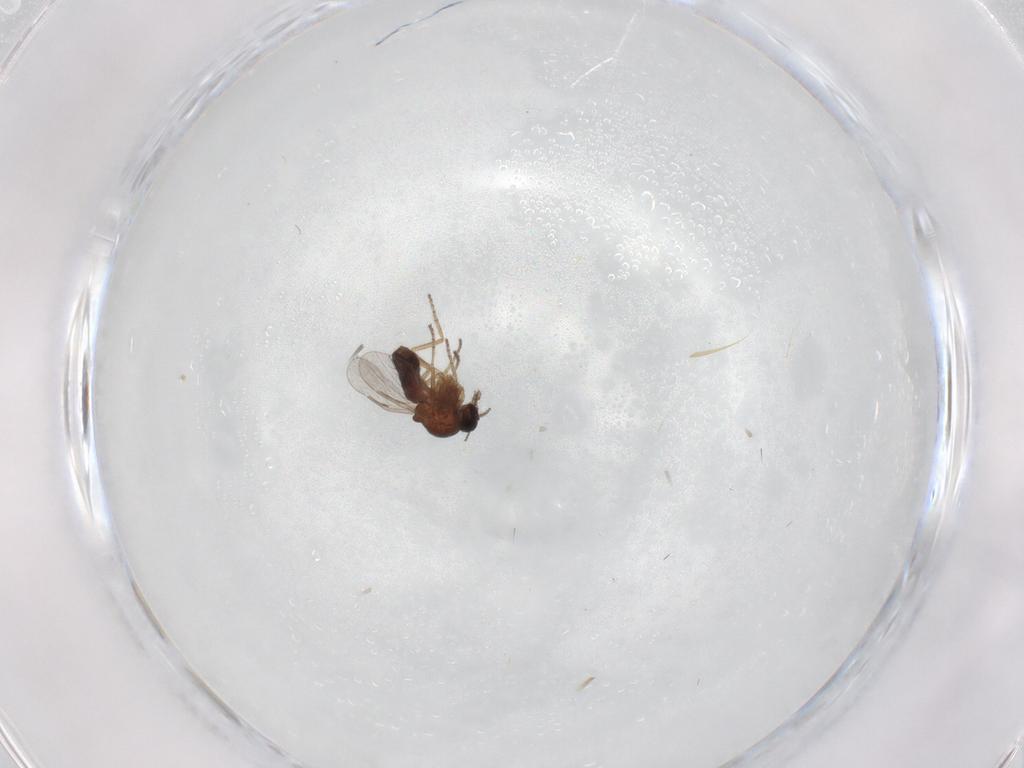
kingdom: Animalia
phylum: Arthropoda
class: Insecta
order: Diptera
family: Ceratopogonidae
